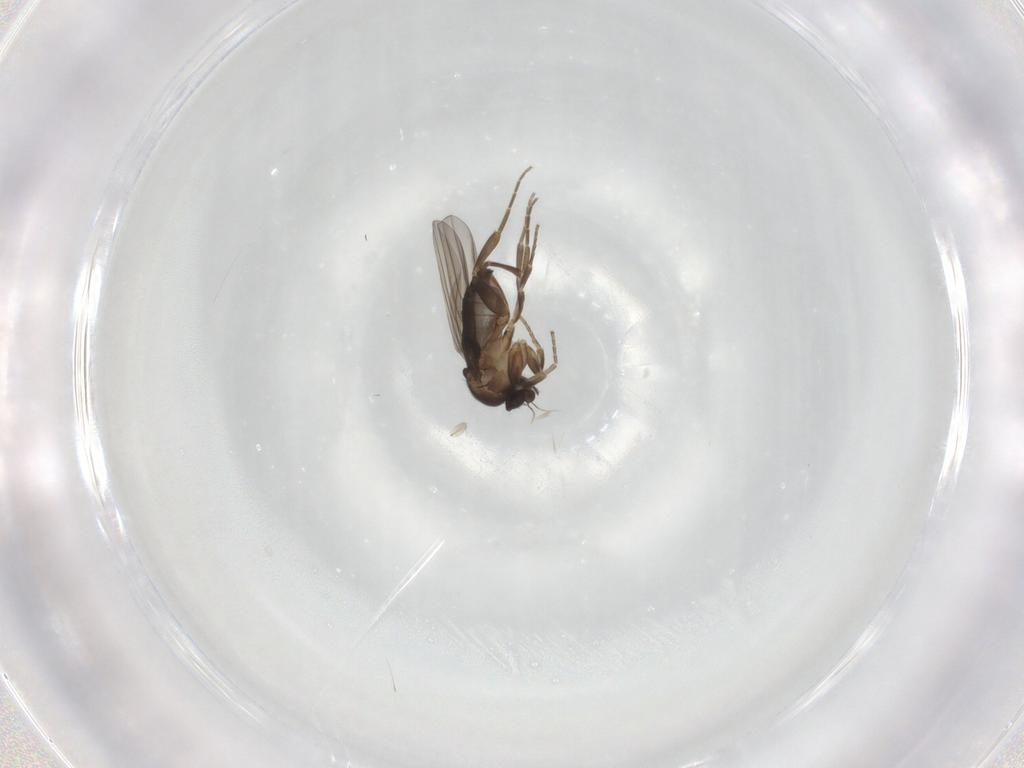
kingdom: Animalia
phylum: Arthropoda
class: Insecta
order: Diptera
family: Phoridae
